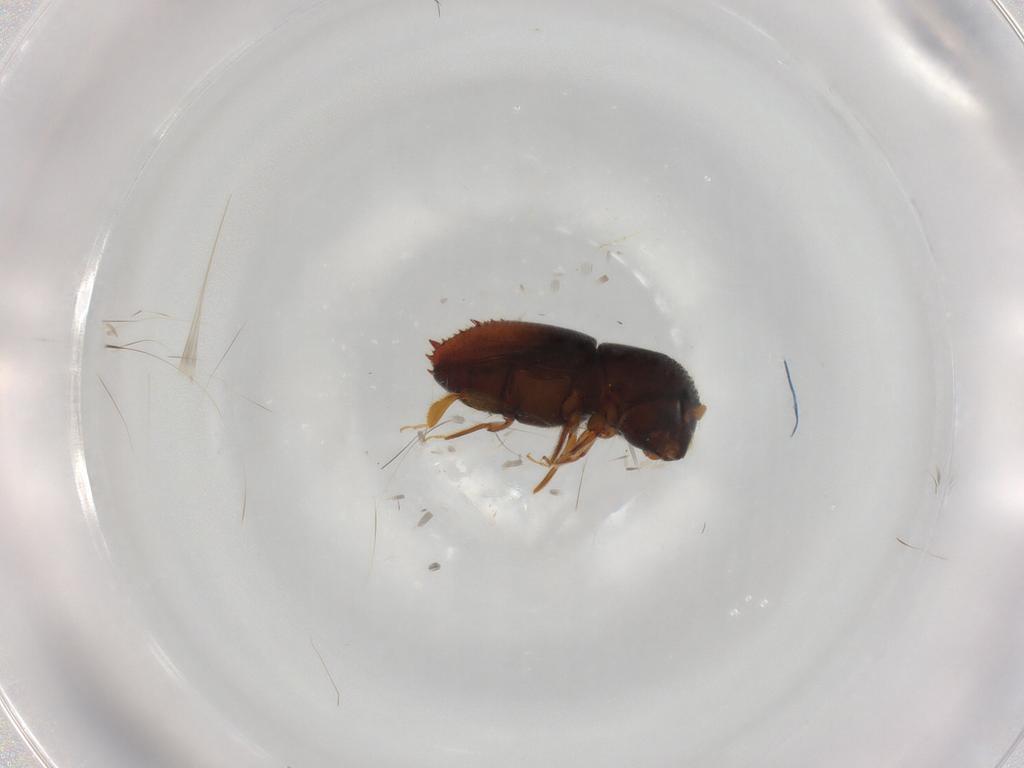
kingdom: Animalia
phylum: Arthropoda
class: Insecta
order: Coleoptera
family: Curculionidae
